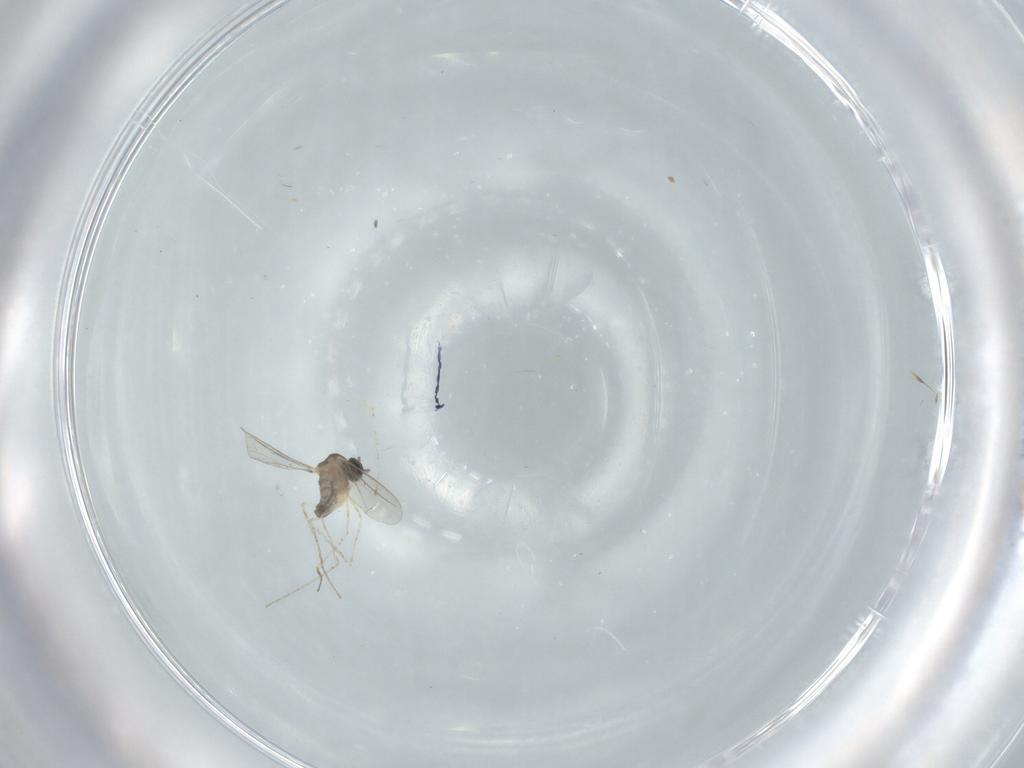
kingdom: Animalia
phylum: Arthropoda
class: Insecta
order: Diptera
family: Cecidomyiidae
